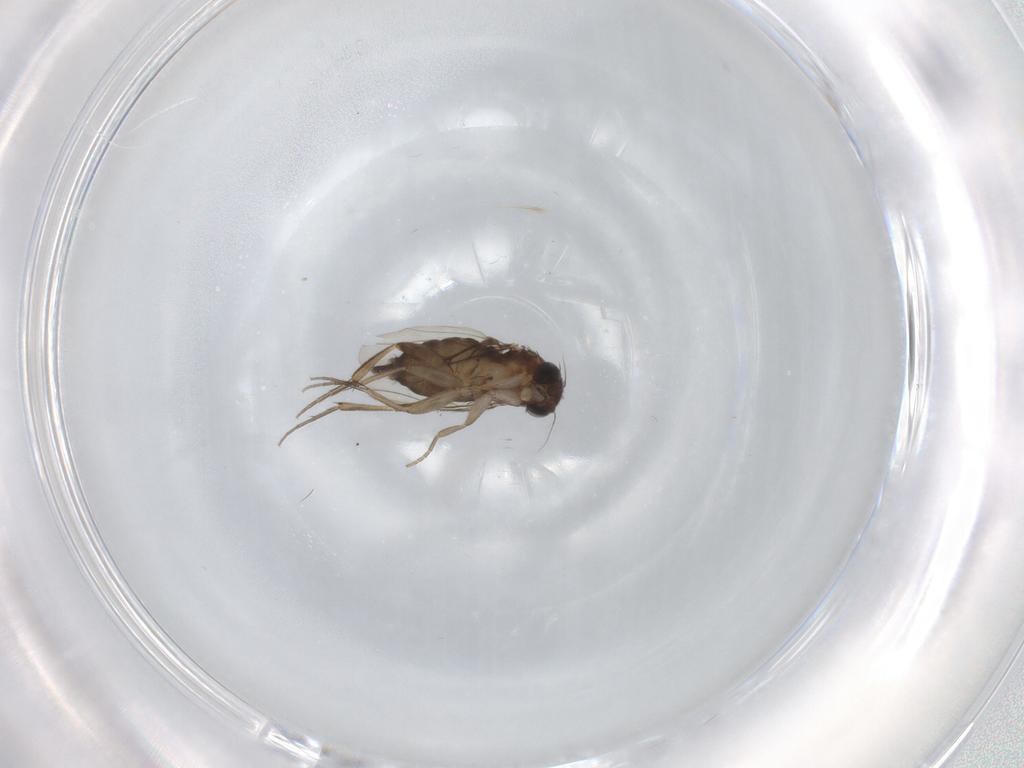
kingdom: Animalia
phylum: Arthropoda
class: Insecta
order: Diptera
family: Phoridae
